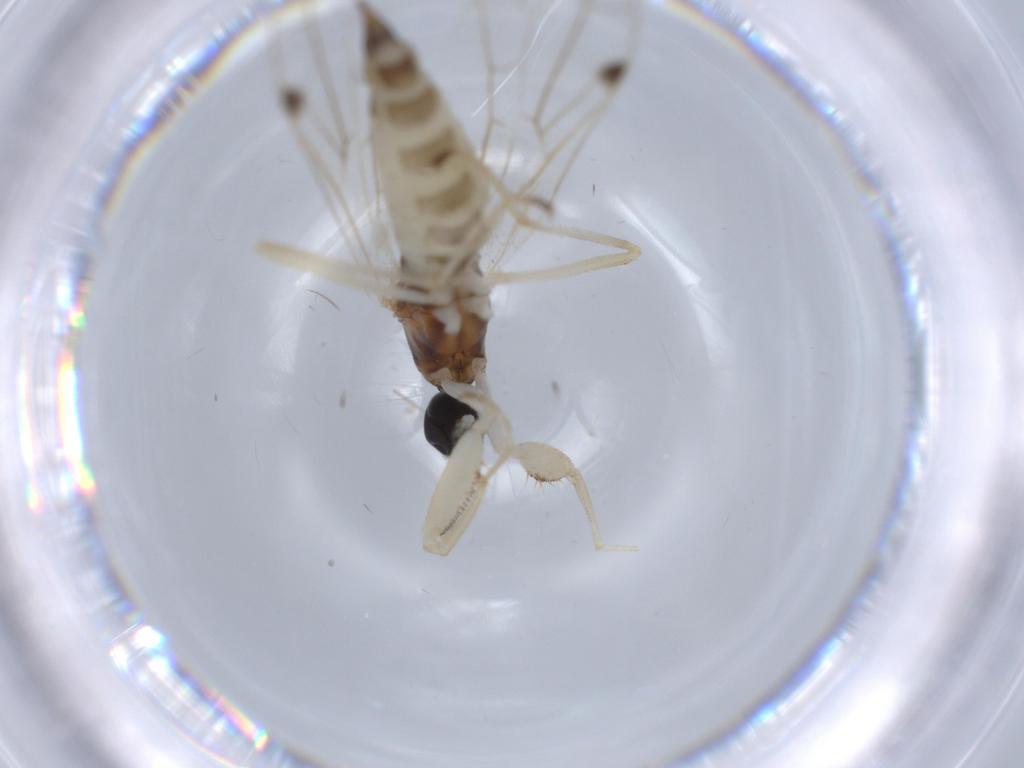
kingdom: Animalia
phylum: Arthropoda
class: Insecta
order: Diptera
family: Empididae
